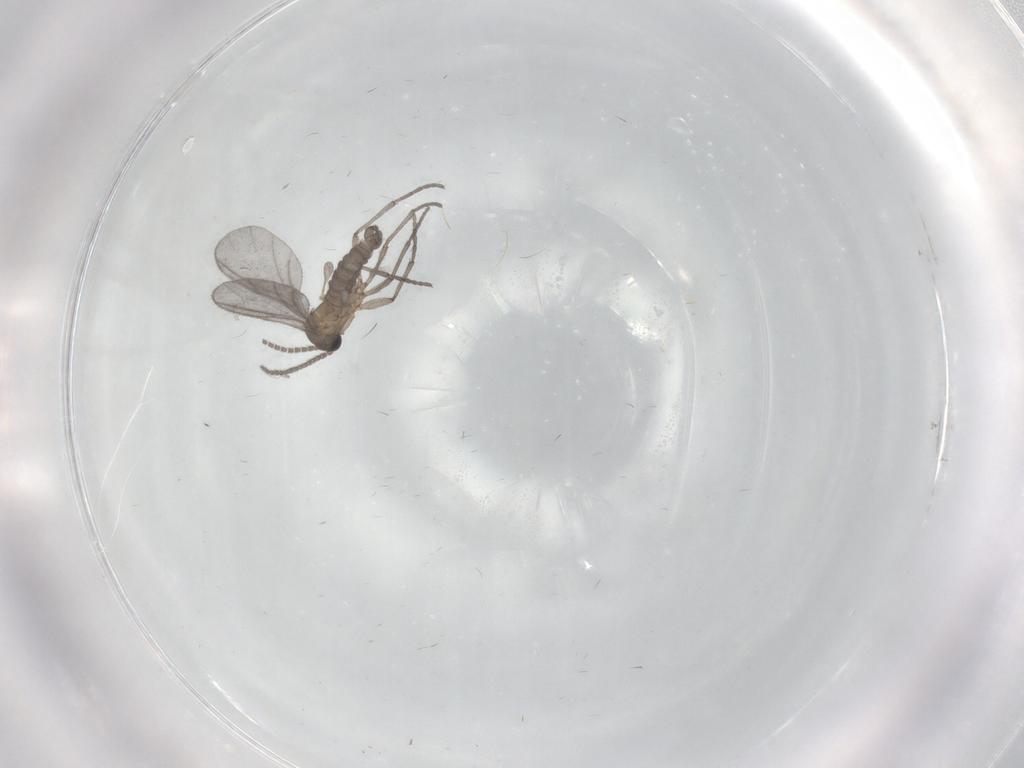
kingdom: Animalia
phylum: Arthropoda
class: Insecta
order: Diptera
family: Sciaridae
